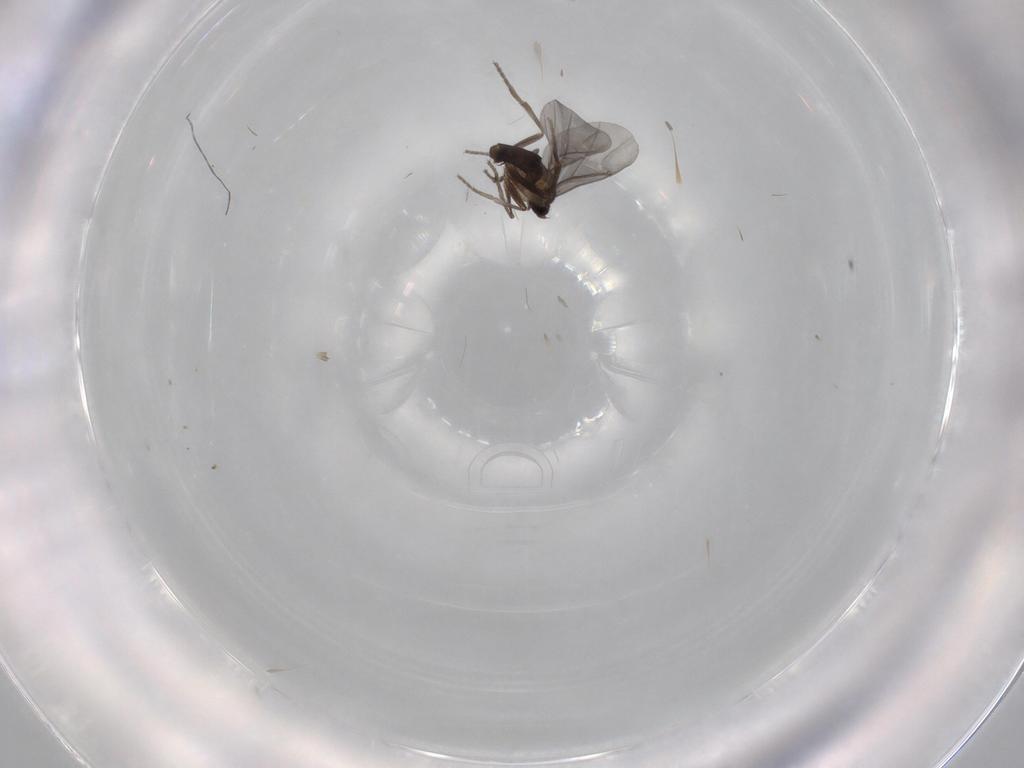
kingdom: Animalia
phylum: Arthropoda
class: Insecta
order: Diptera
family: Phoridae
